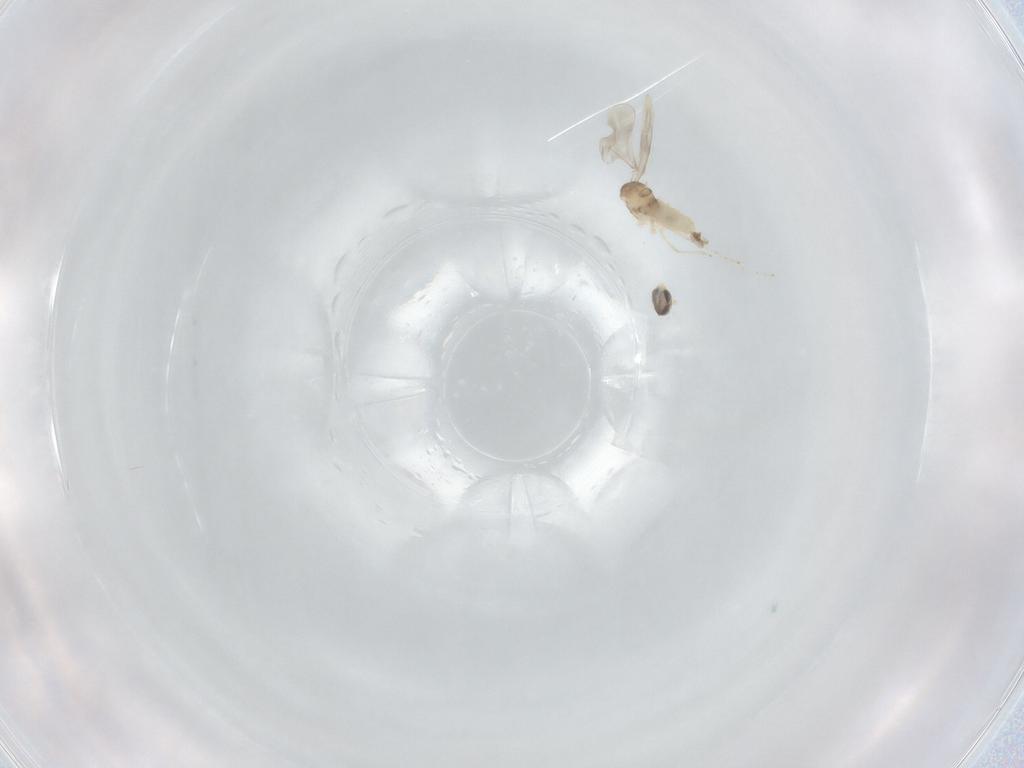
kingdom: Animalia
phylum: Arthropoda
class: Insecta
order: Diptera
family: Cecidomyiidae
